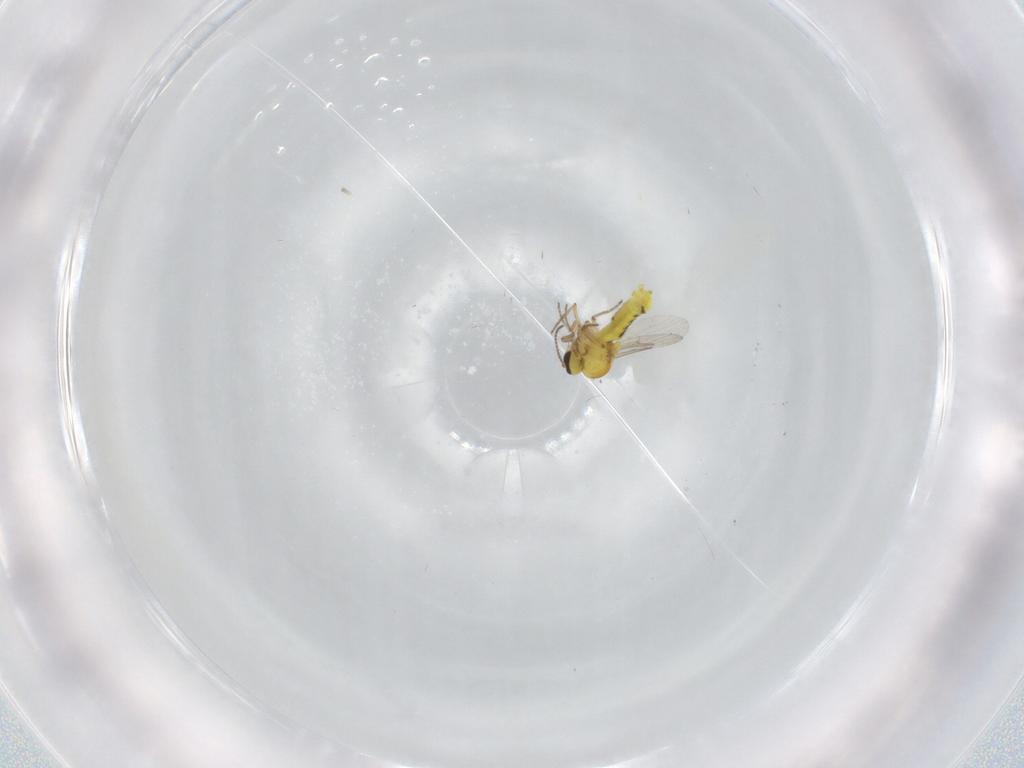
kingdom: Animalia
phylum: Arthropoda
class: Insecta
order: Diptera
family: Ceratopogonidae
